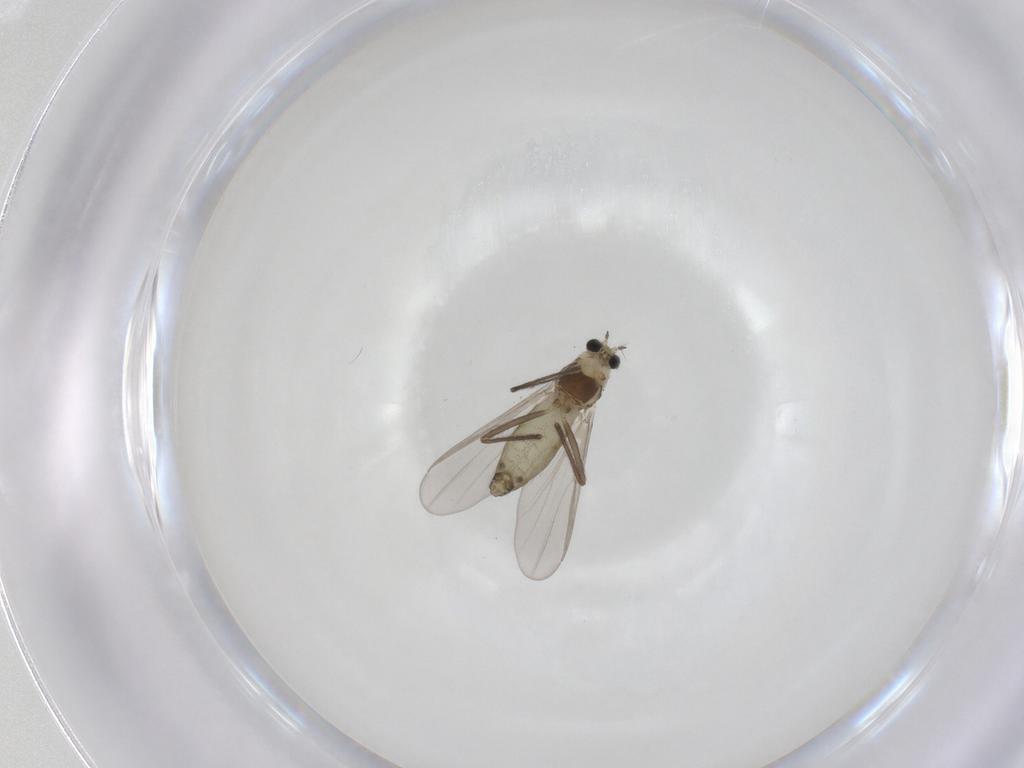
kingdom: Animalia
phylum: Arthropoda
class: Insecta
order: Diptera
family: Chironomidae
